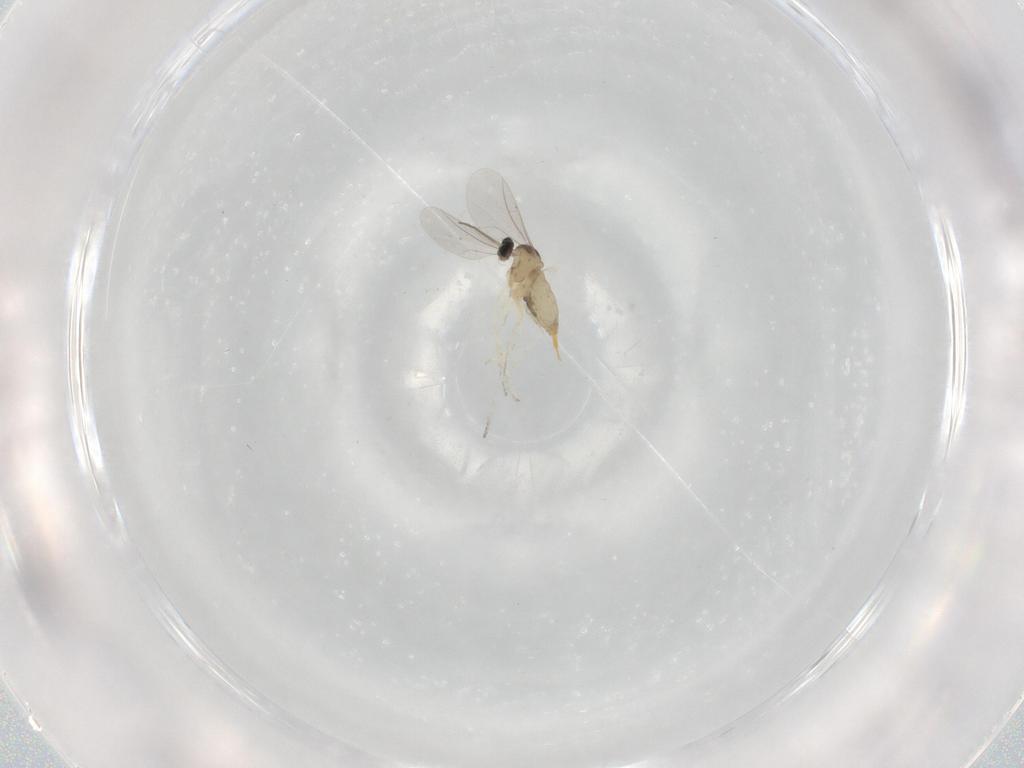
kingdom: Animalia
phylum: Arthropoda
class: Insecta
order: Diptera
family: Cecidomyiidae
